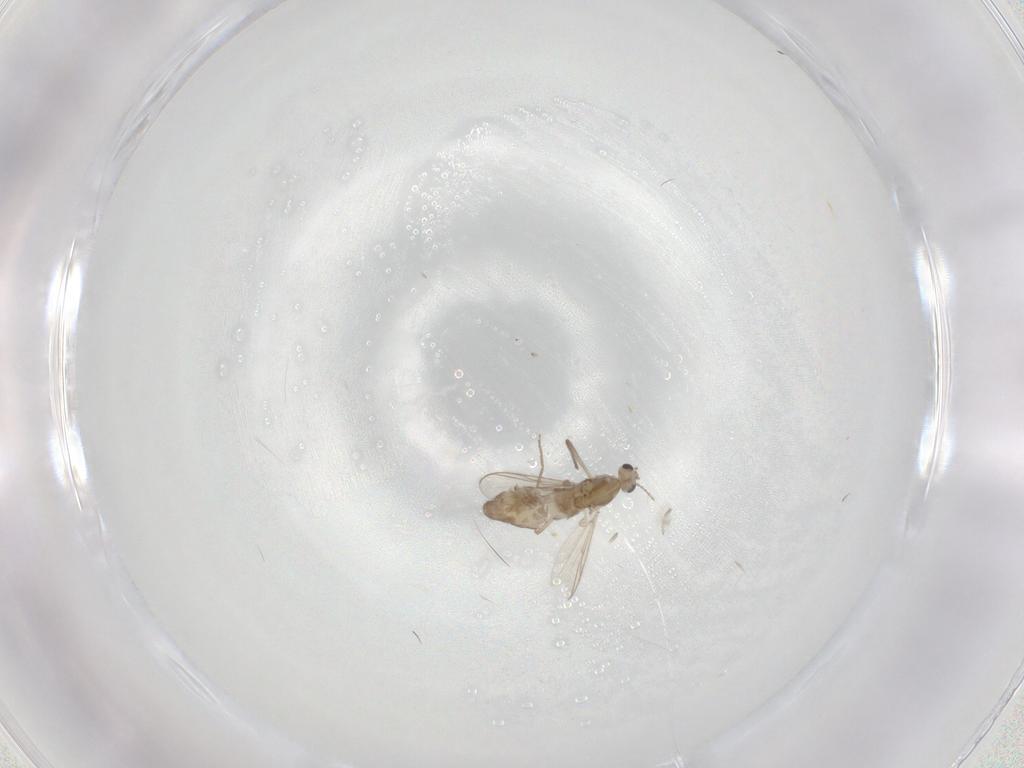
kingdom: Animalia
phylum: Arthropoda
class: Insecta
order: Diptera
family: Chironomidae
